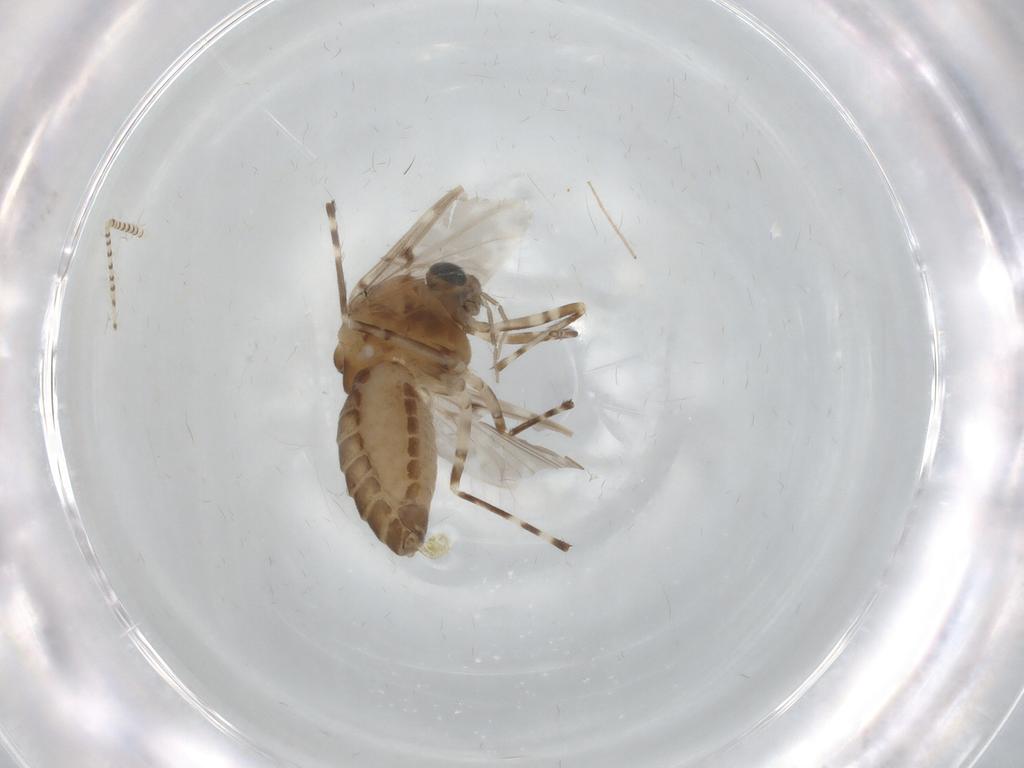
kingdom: Animalia
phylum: Arthropoda
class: Insecta
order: Diptera
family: Chironomidae
